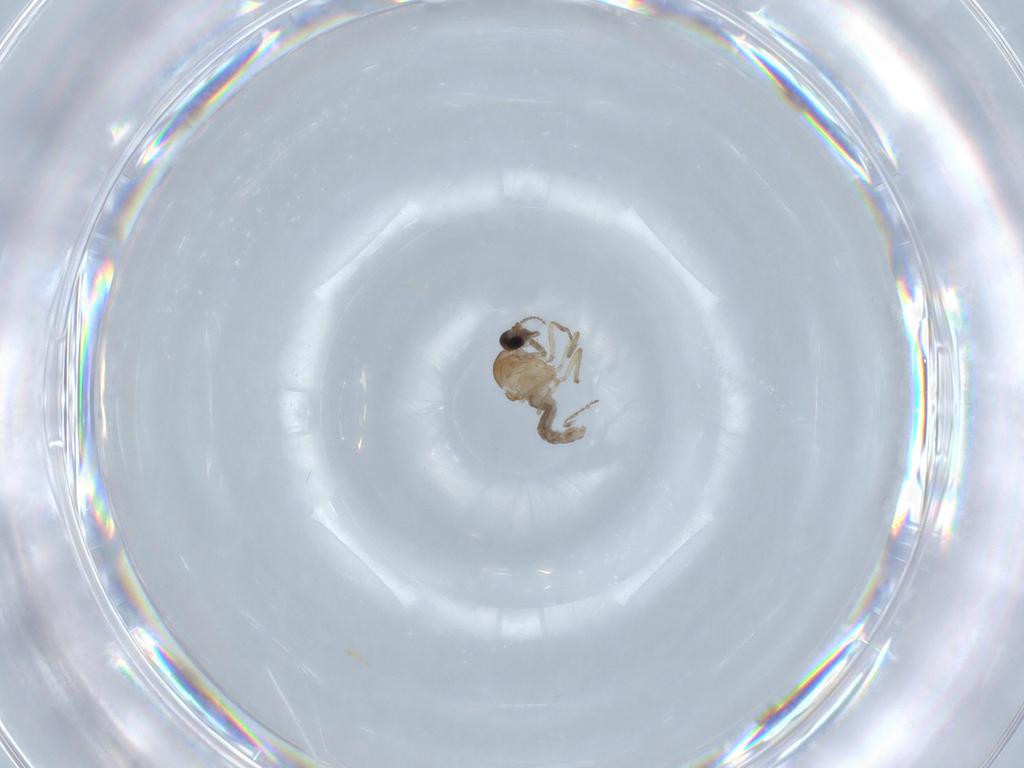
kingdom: Animalia
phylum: Arthropoda
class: Insecta
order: Diptera
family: Cecidomyiidae
